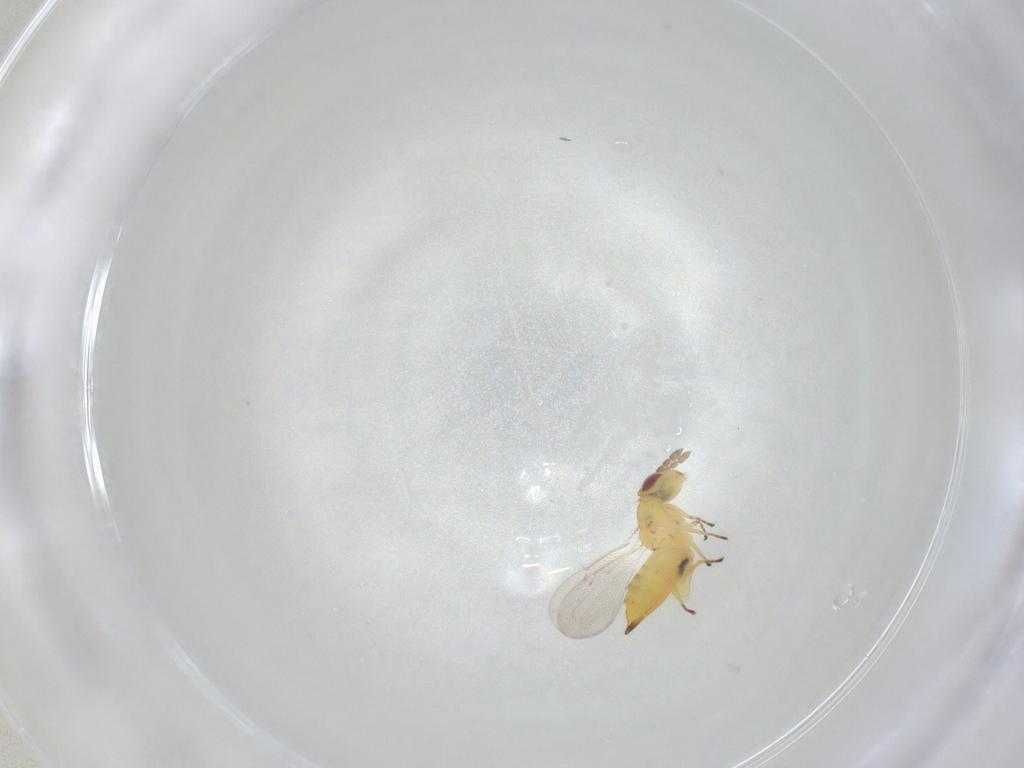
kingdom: Animalia
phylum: Arthropoda
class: Insecta
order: Hymenoptera
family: Eulophidae
